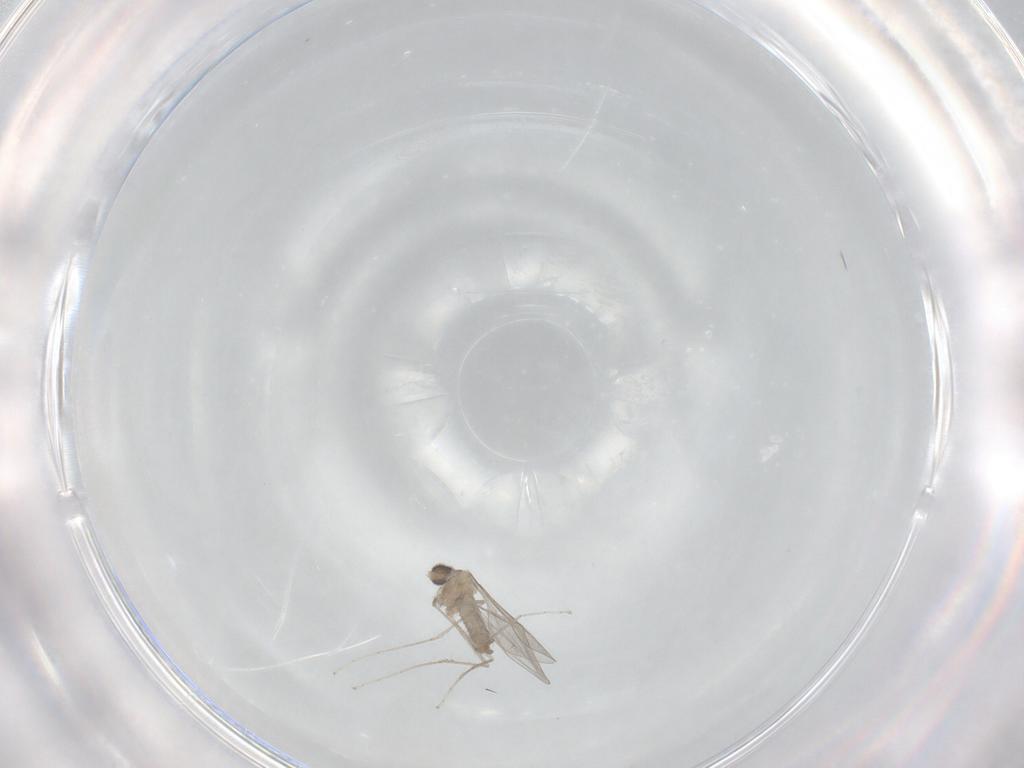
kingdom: Animalia
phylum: Arthropoda
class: Insecta
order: Diptera
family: Cecidomyiidae
